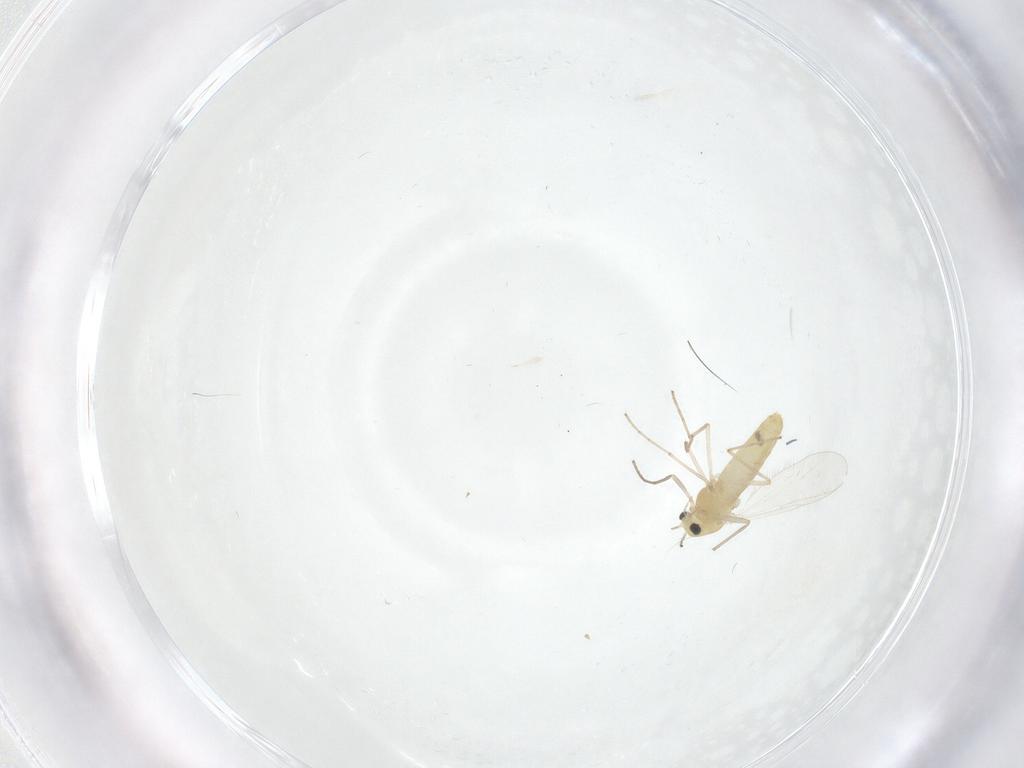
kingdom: Animalia
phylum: Arthropoda
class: Insecta
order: Diptera
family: Chironomidae
